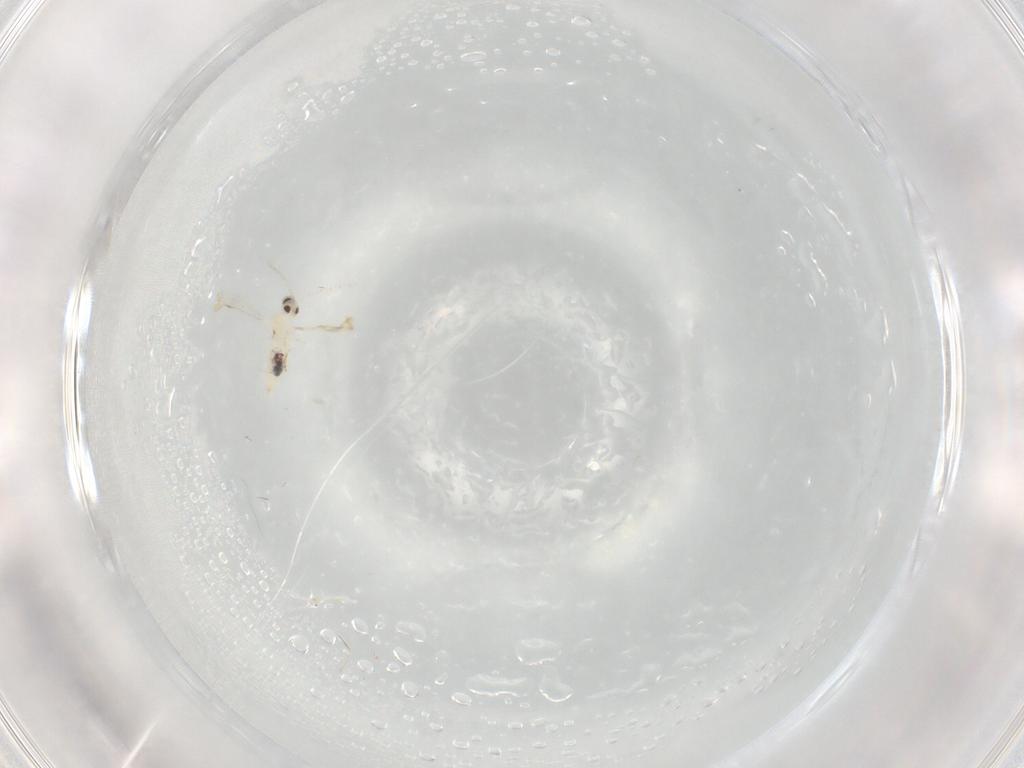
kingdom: Animalia
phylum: Arthropoda
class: Insecta
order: Diptera
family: Cecidomyiidae
